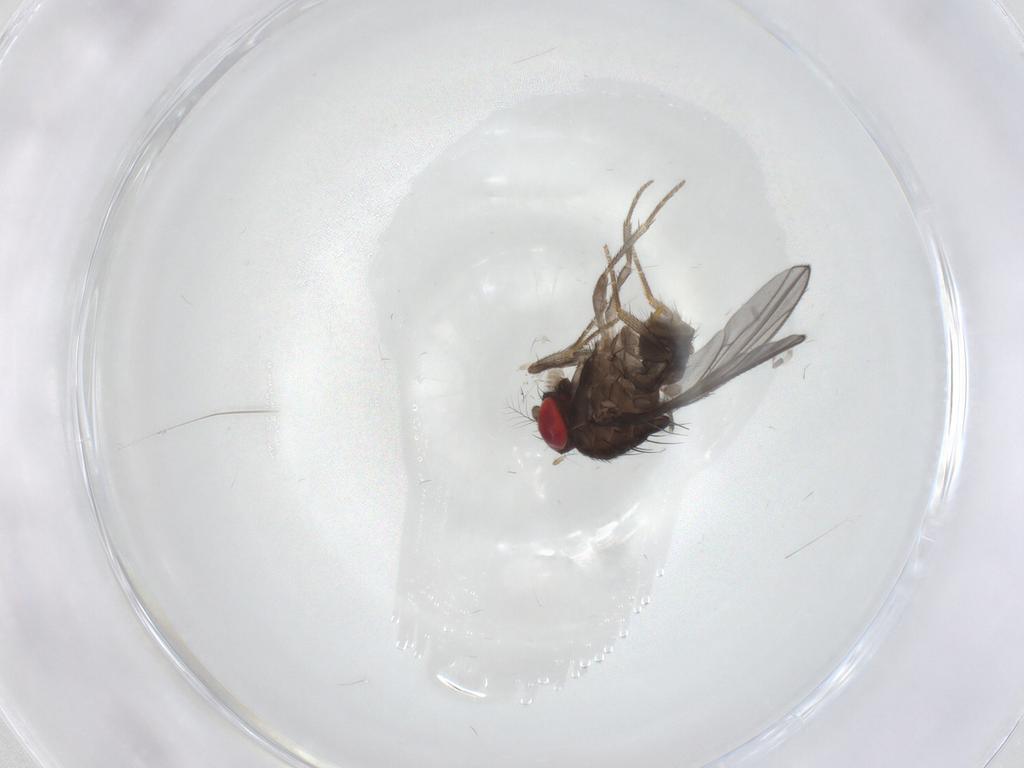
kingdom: Animalia
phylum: Arthropoda
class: Insecta
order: Diptera
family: Drosophilidae
